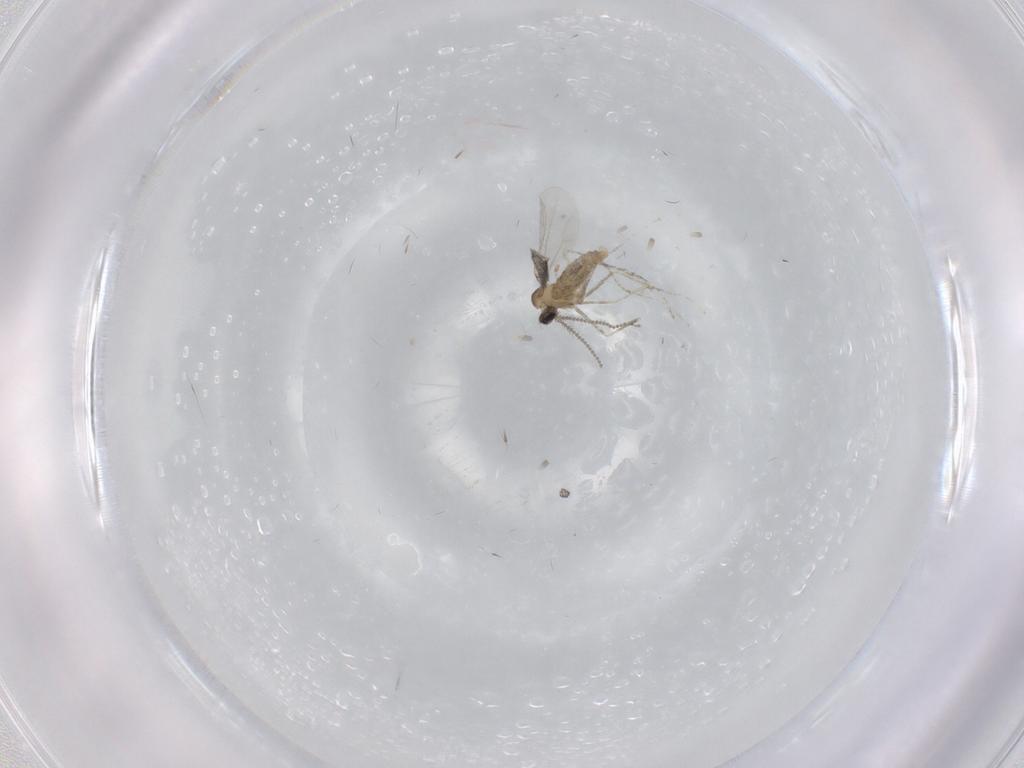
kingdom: Animalia
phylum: Arthropoda
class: Insecta
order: Diptera
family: Cecidomyiidae
